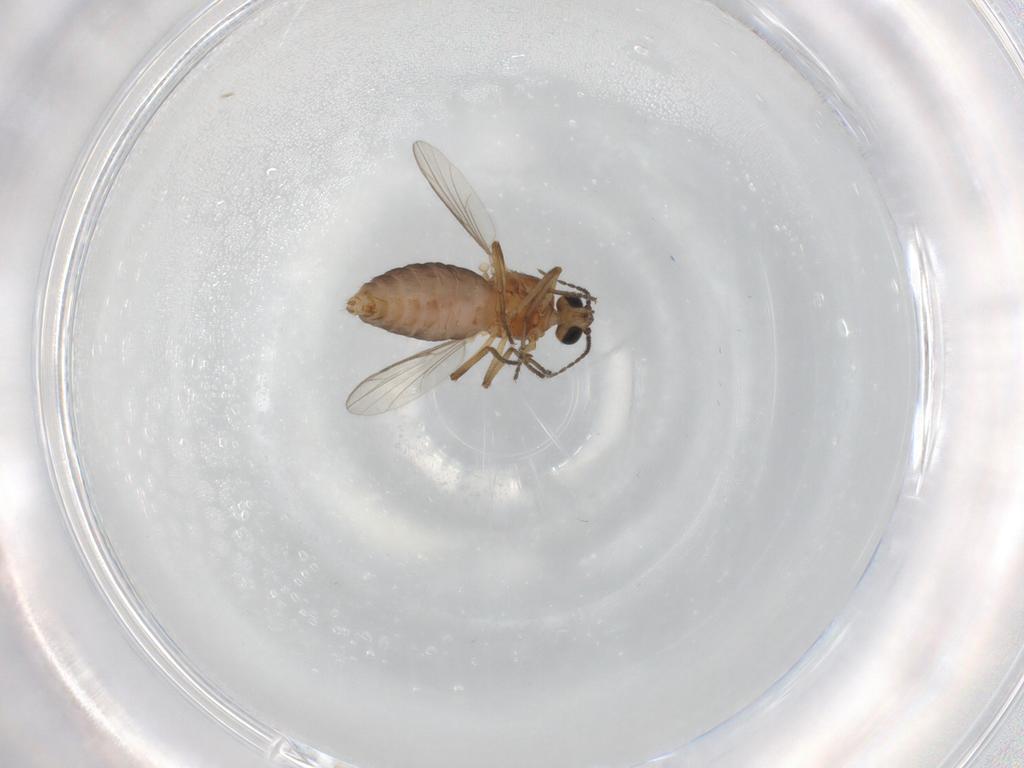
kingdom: Animalia
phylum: Arthropoda
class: Insecta
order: Diptera
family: Ceratopogonidae
